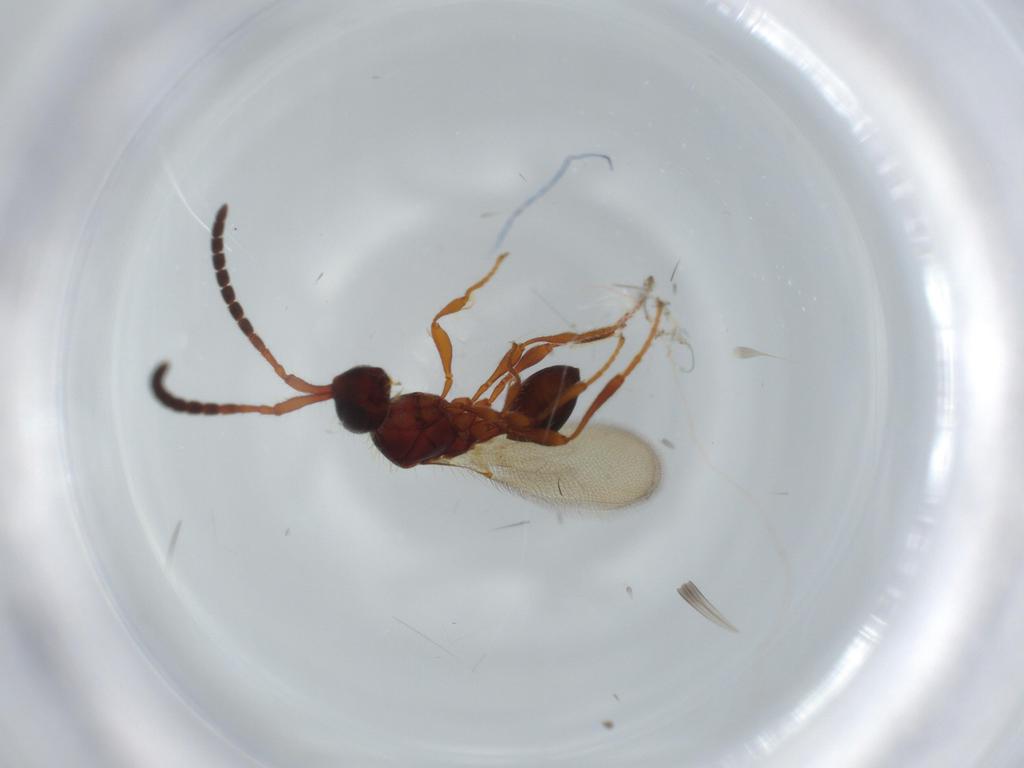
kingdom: Animalia
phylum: Arthropoda
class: Insecta
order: Hymenoptera
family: Diapriidae
